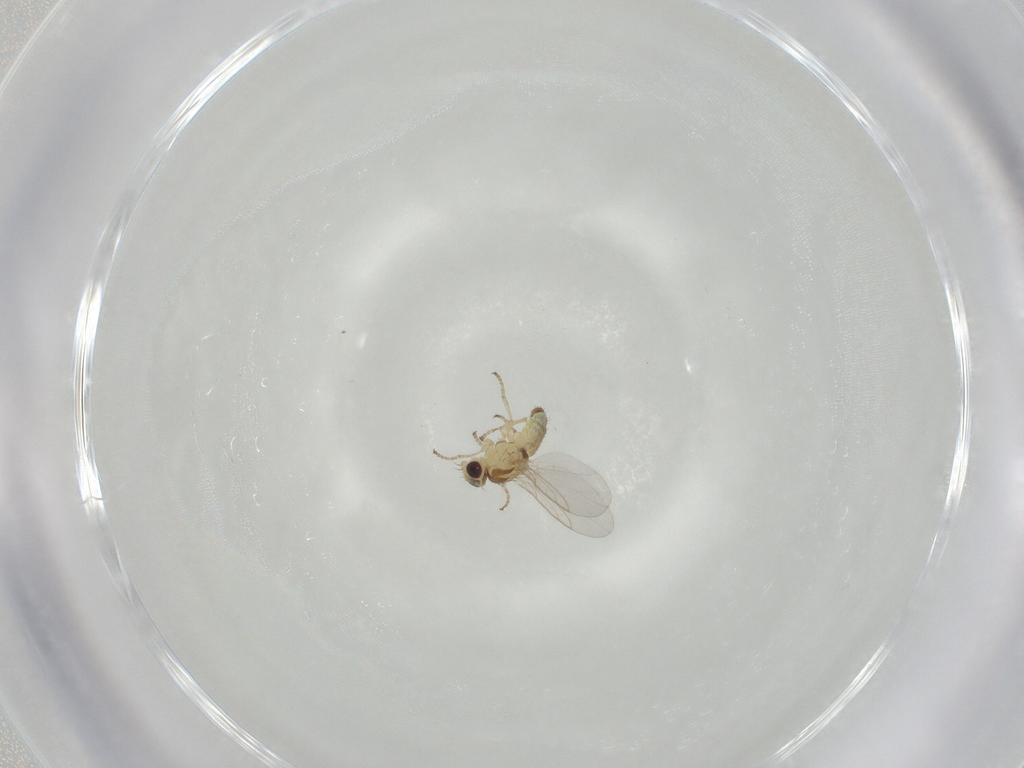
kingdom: Animalia
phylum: Arthropoda
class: Insecta
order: Diptera
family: Agromyzidae
